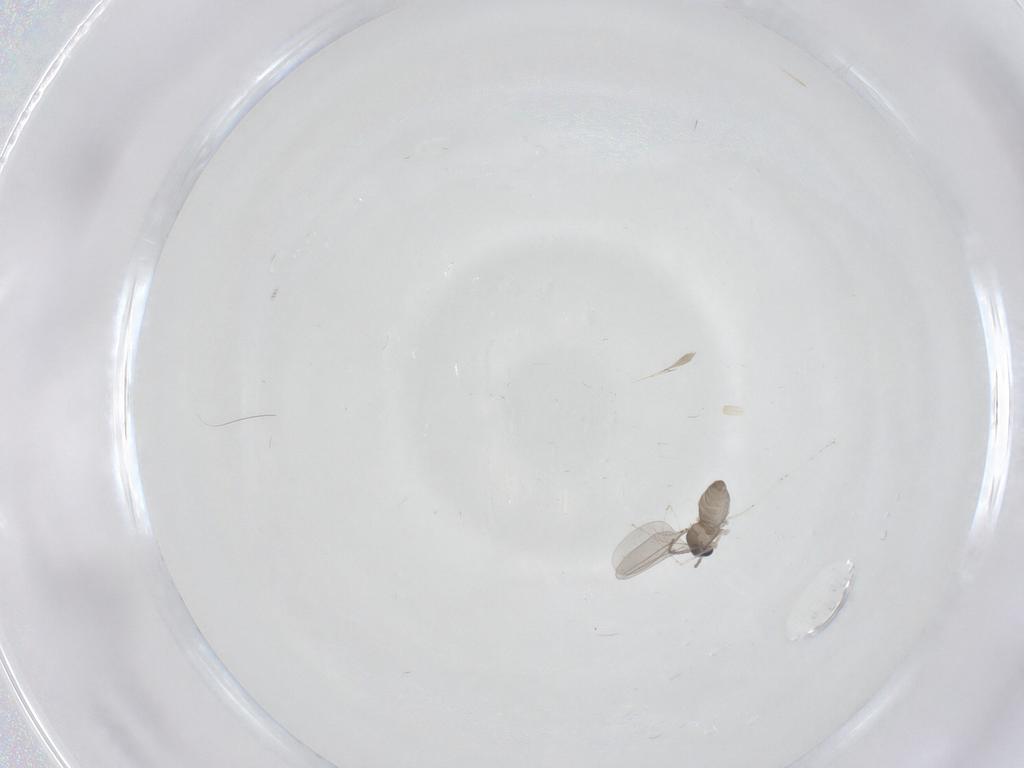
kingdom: Animalia
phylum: Arthropoda
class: Insecta
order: Diptera
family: Cecidomyiidae
